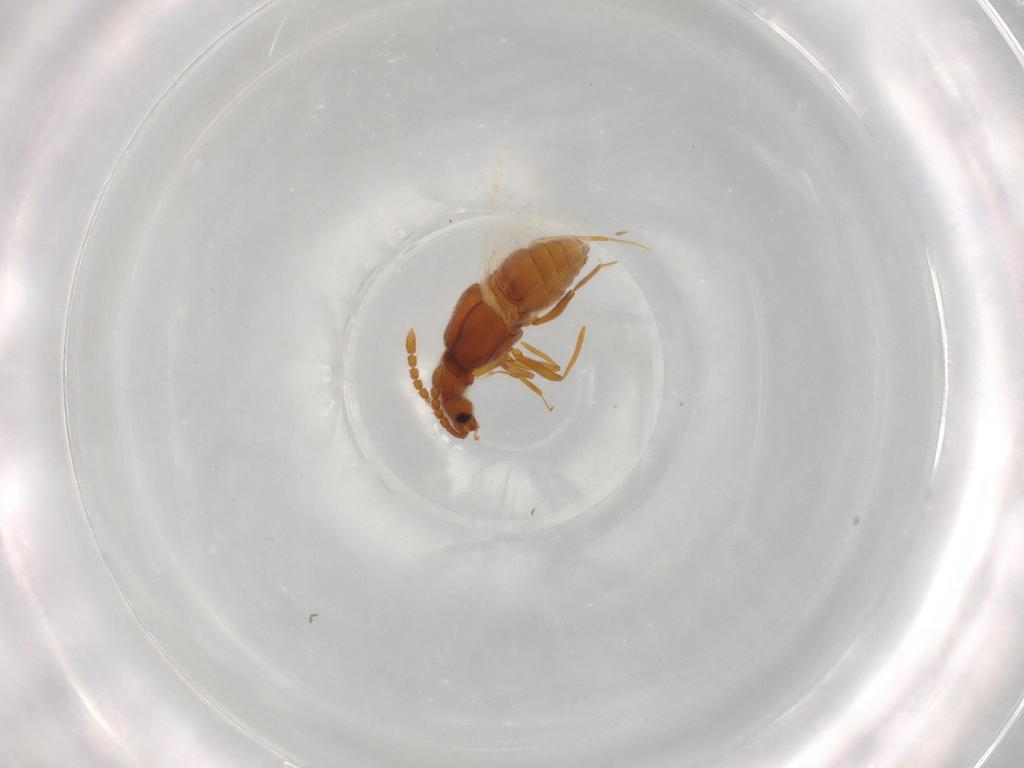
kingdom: Animalia
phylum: Arthropoda
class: Insecta
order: Coleoptera
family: Staphylinidae
